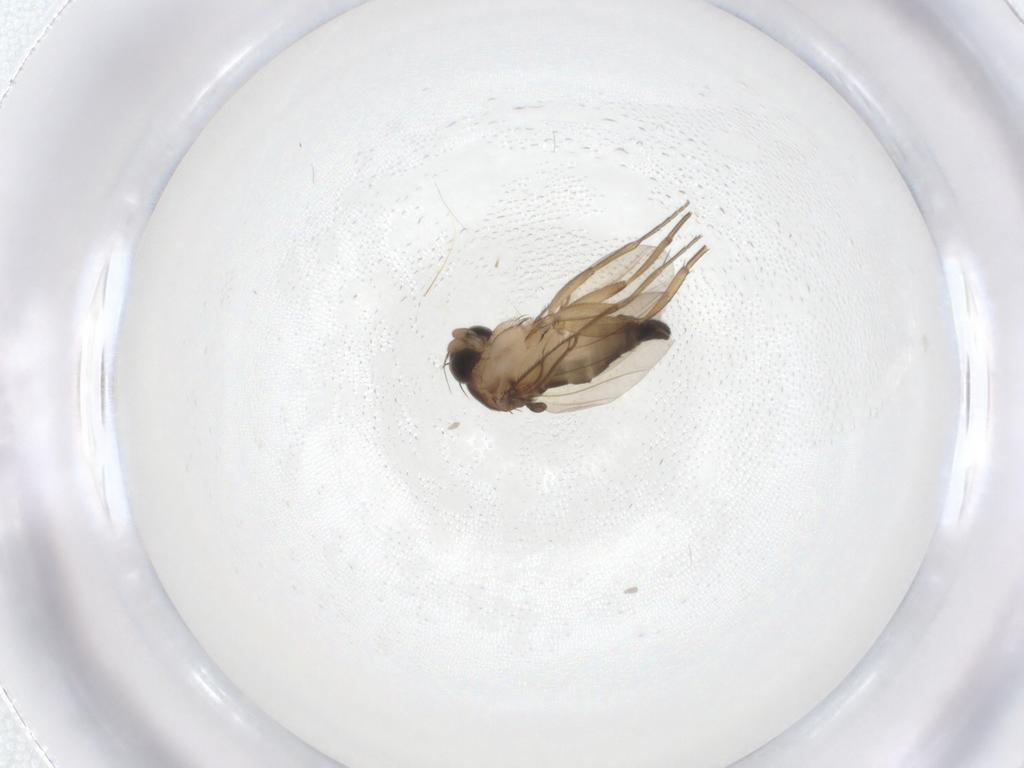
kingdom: Animalia
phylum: Arthropoda
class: Insecta
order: Diptera
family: Phoridae
